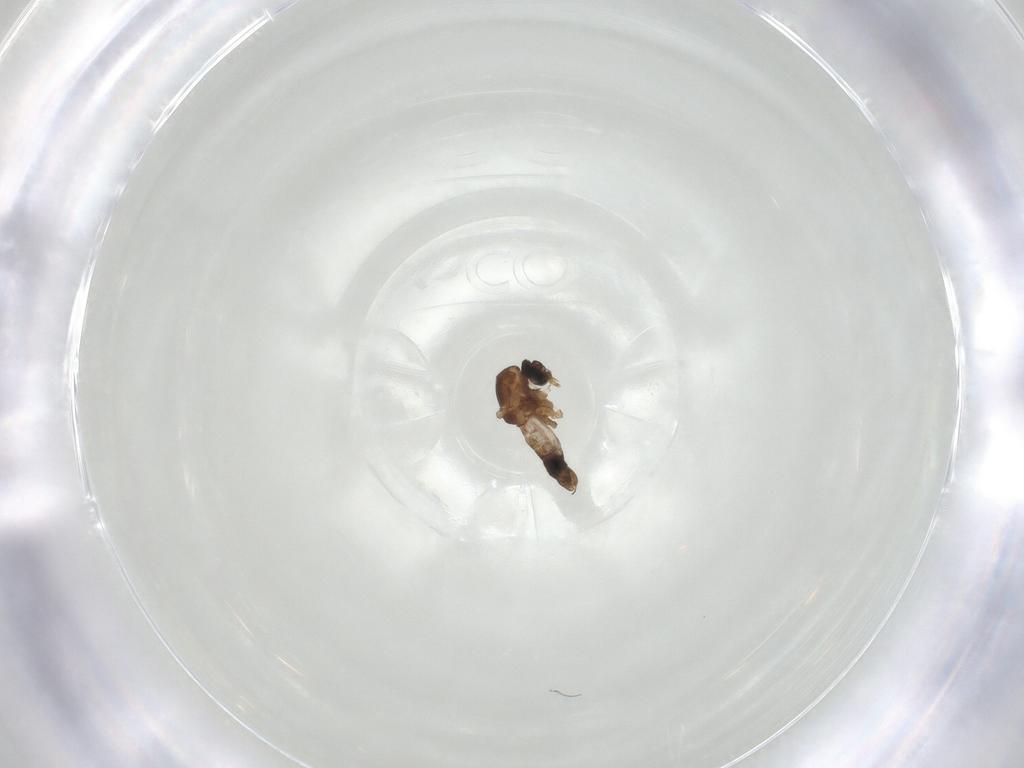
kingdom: Animalia
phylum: Arthropoda
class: Insecta
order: Diptera
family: Ceratopogonidae
